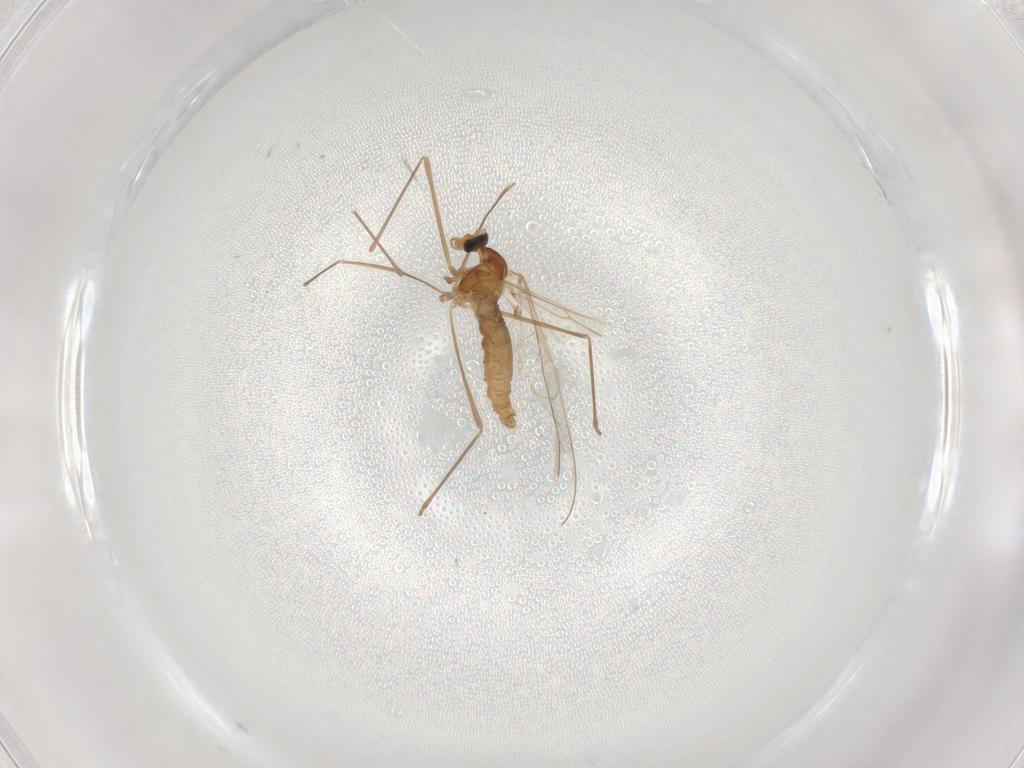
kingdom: Animalia
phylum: Arthropoda
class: Insecta
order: Diptera
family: Cecidomyiidae
